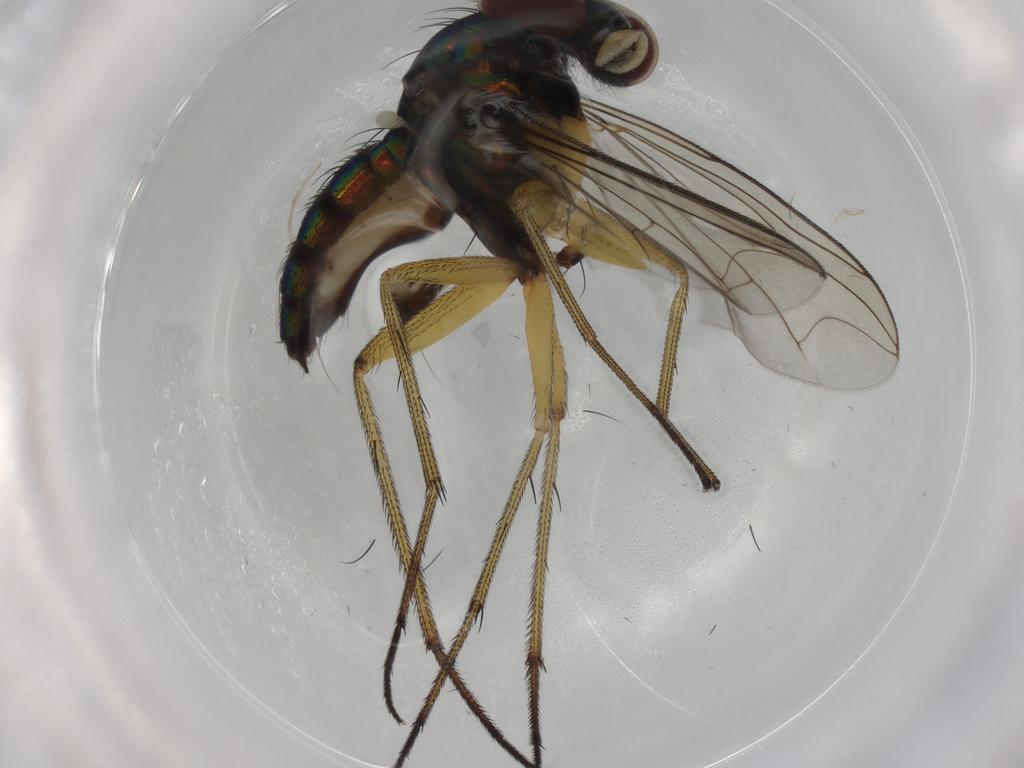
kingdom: Animalia
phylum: Arthropoda
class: Insecta
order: Diptera
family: Dolichopodidae
